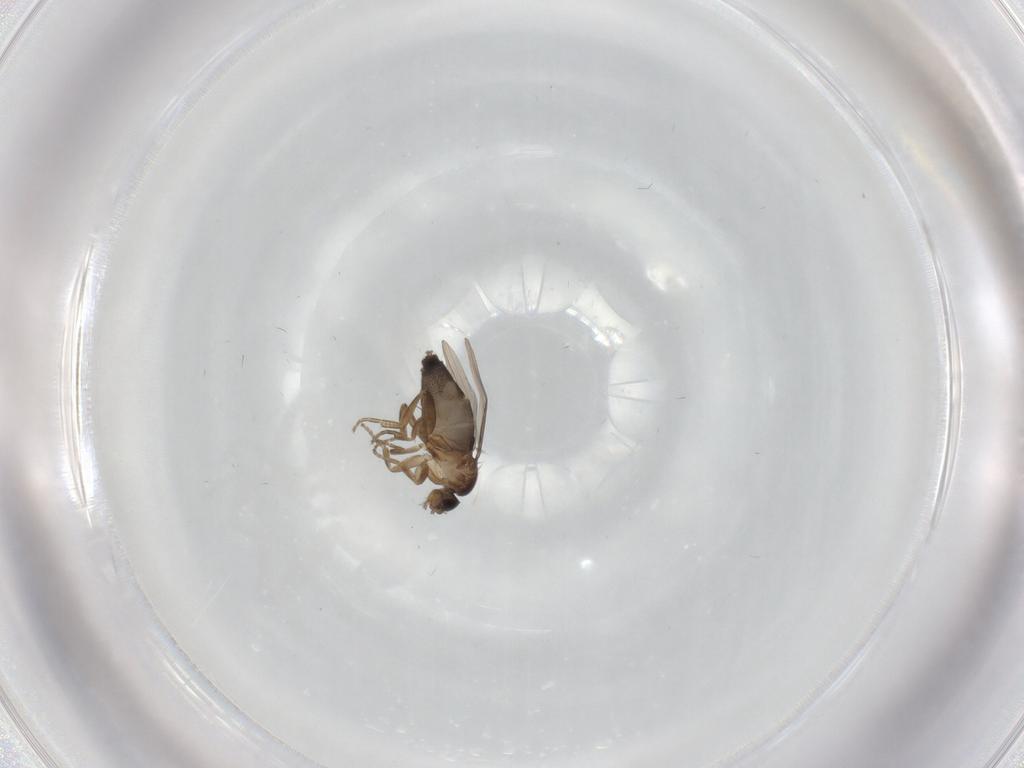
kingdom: Animalia
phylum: Arthropoda
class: Insecta
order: Diptera
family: Phoridae
